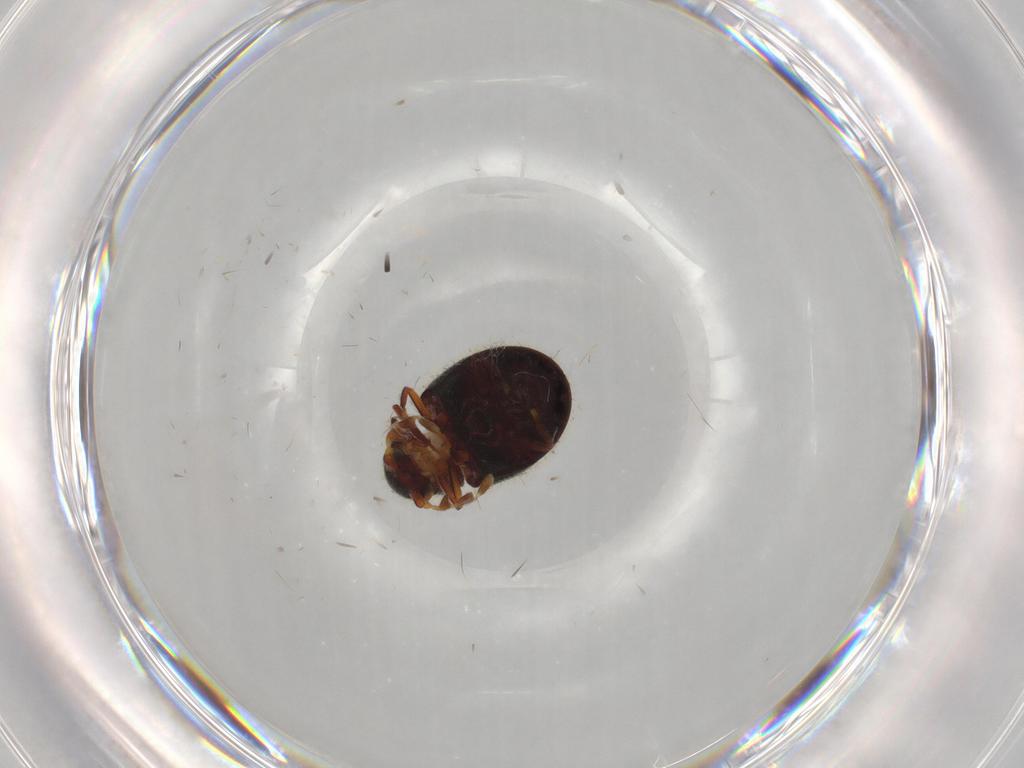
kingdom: Animalia
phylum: Arthropoda
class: Insecta
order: Coleoptera
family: Ptinidae
